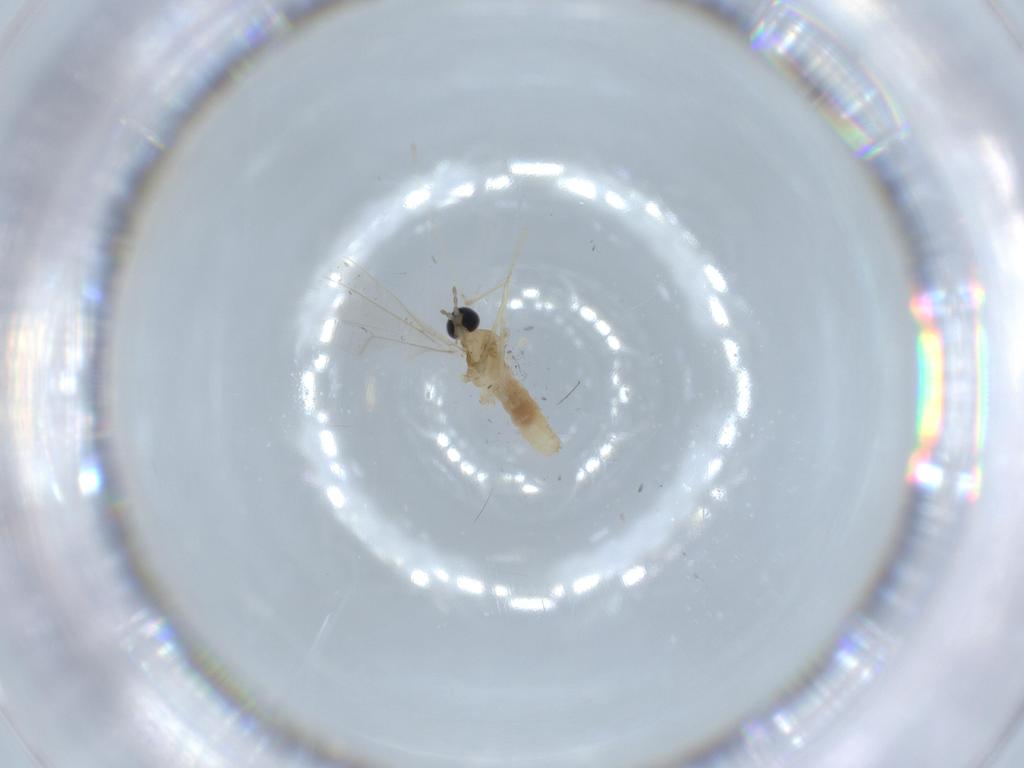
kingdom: Animalia
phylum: Arthropoda
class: Insecta
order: Diptera
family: Cecidomyiidae
